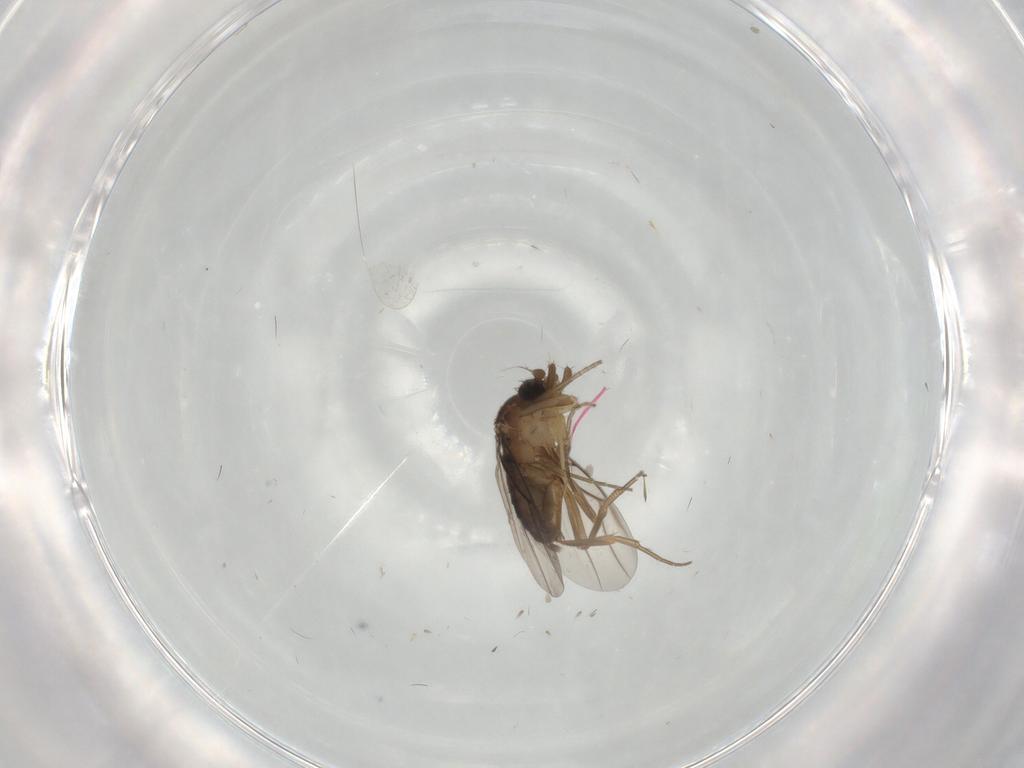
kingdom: Animalia
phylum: Arthropoda
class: Insecta
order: Diptera
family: Phoridae
